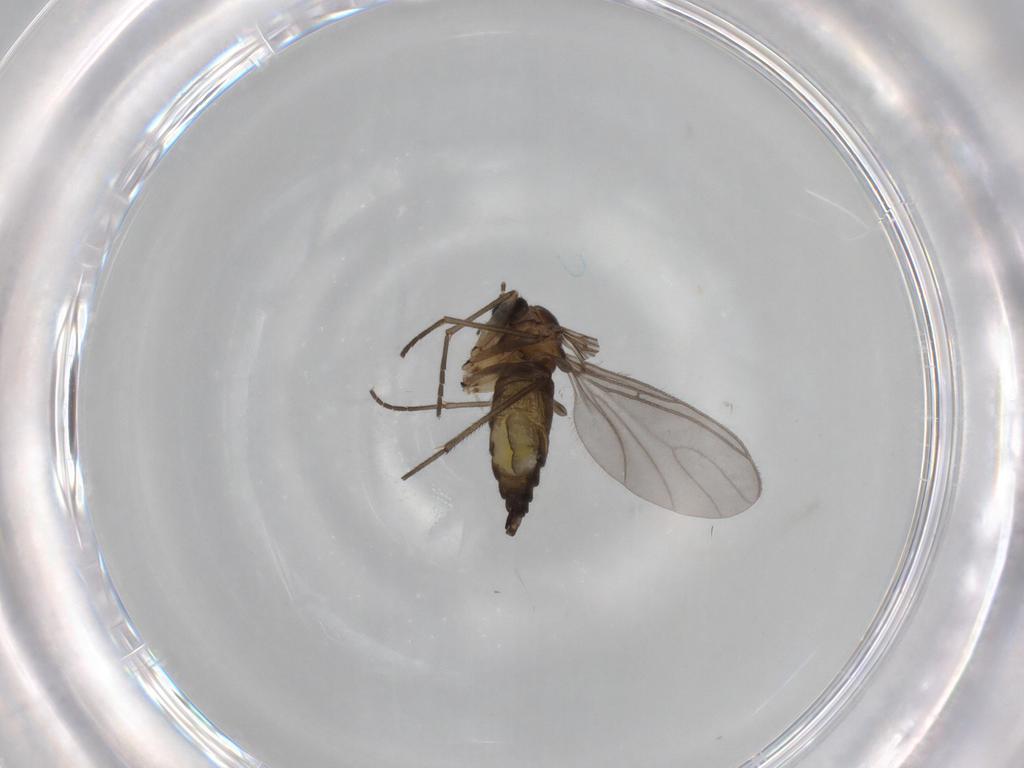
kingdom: Animalia
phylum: Arthropoda
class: Insecta
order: Diptera
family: Sciaridae
